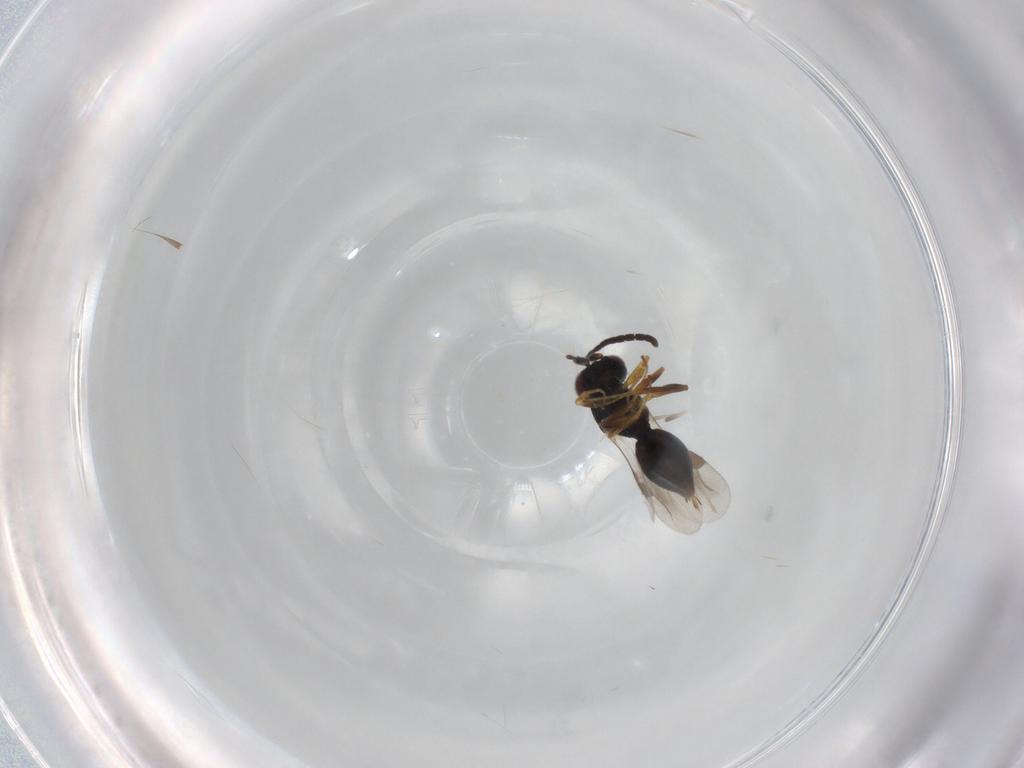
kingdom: Animalia
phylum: Arthropoda
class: Insecta
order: Hymenoptera
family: Megaspilidae
